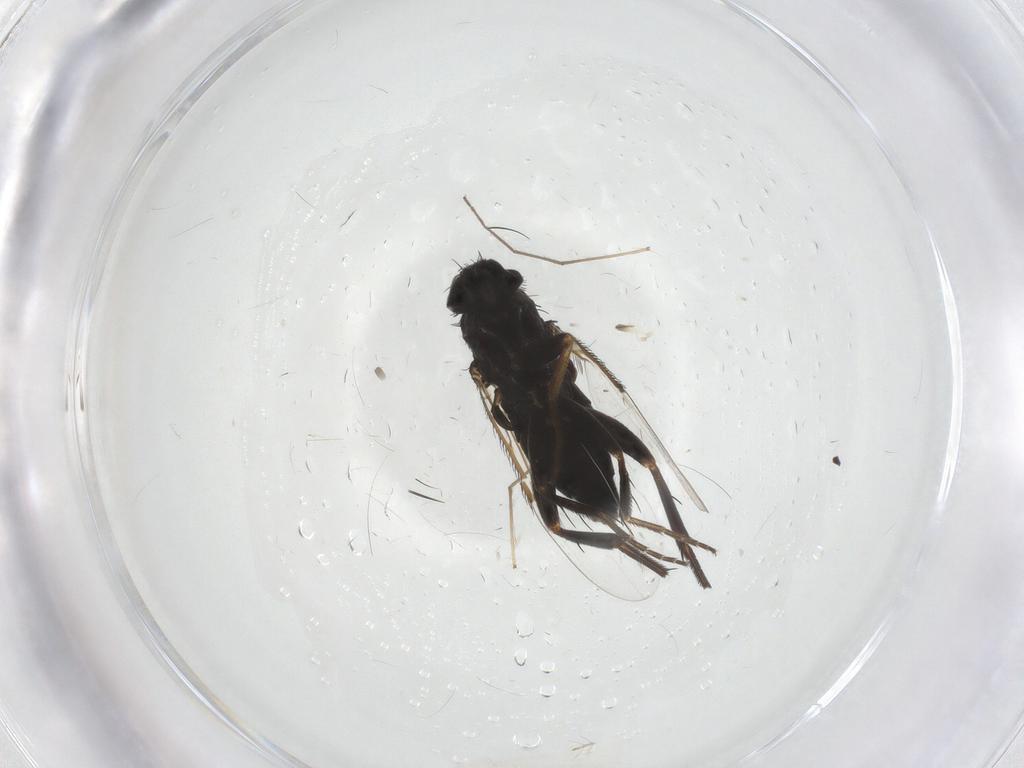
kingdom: Animalia
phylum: Arthropoda
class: Insecta
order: Diptera
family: Phoridae
